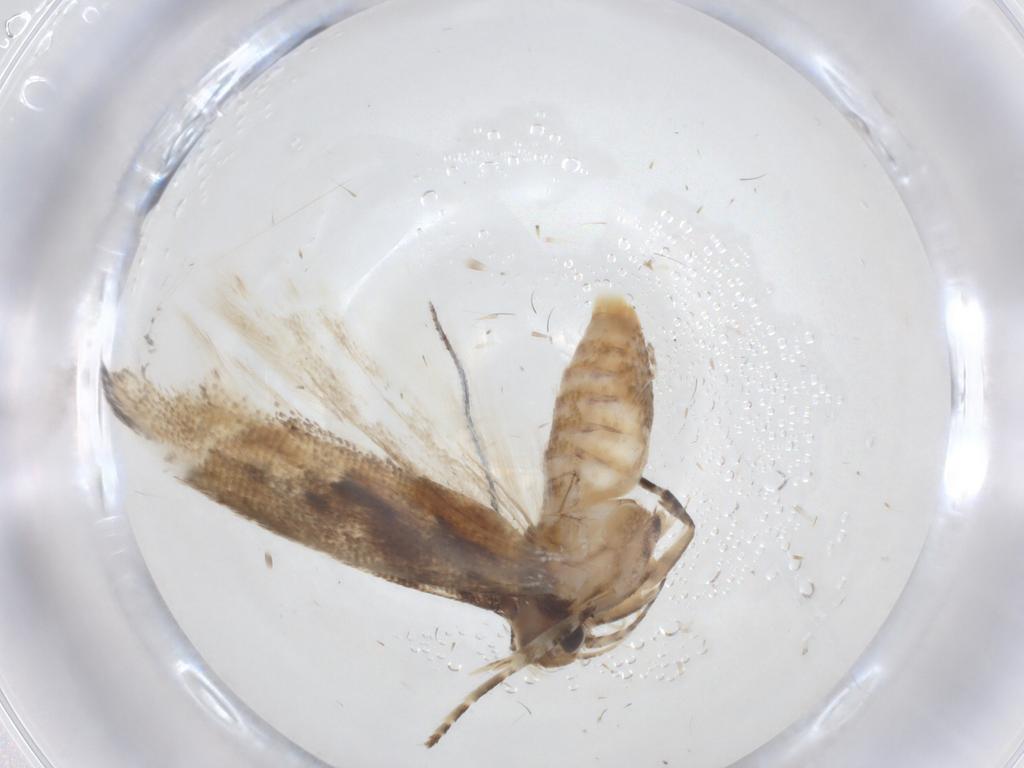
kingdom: Animalia
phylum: Arthropoda
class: Insecta
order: Lepidoptera
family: Gelechiidae
